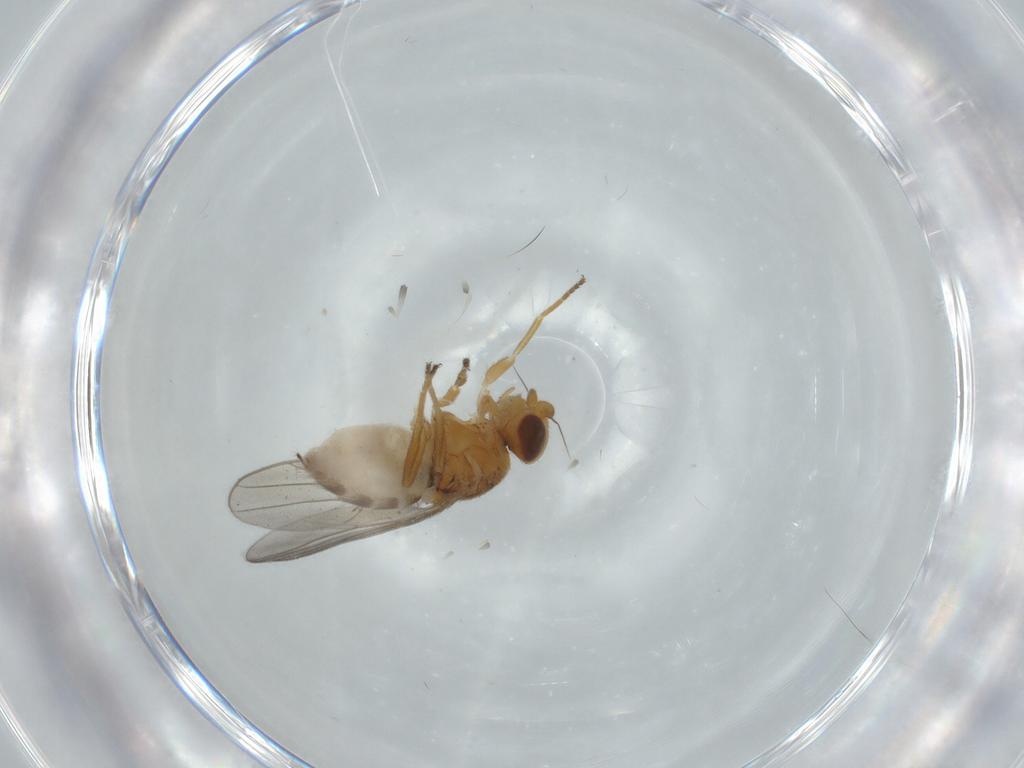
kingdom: Animalia
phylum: Arthropoda
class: Insecta
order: Diptera
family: Chloropidae
